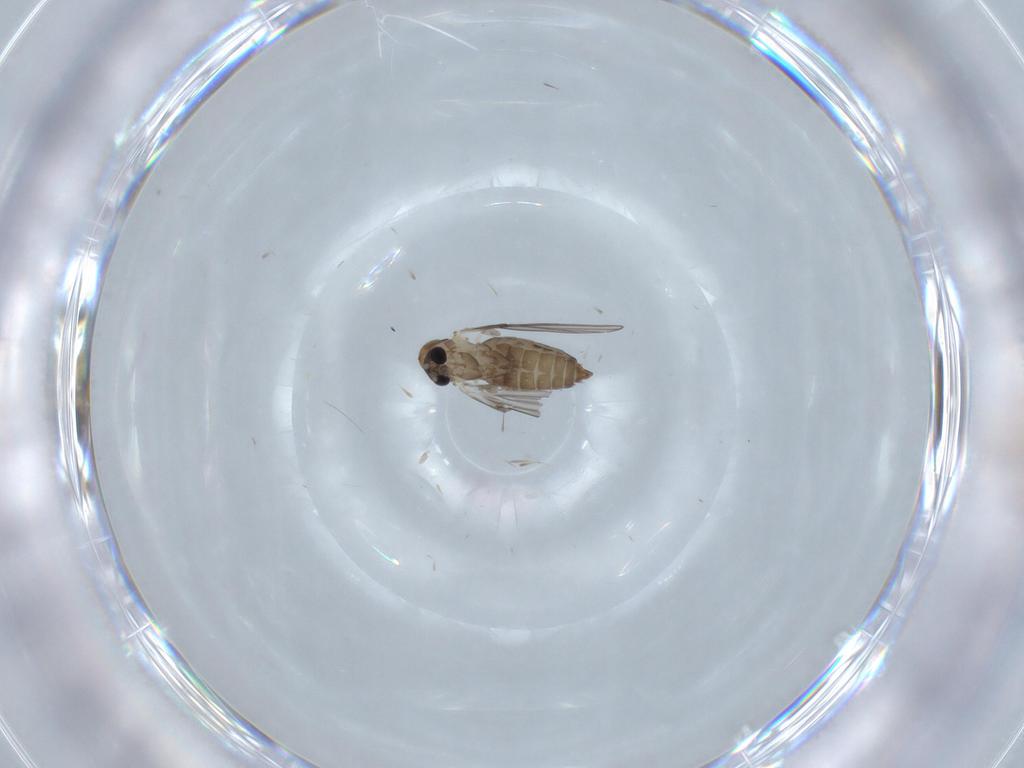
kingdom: Animalia
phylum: Arthropoda
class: Insecta
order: Diptera
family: Psychodidae
